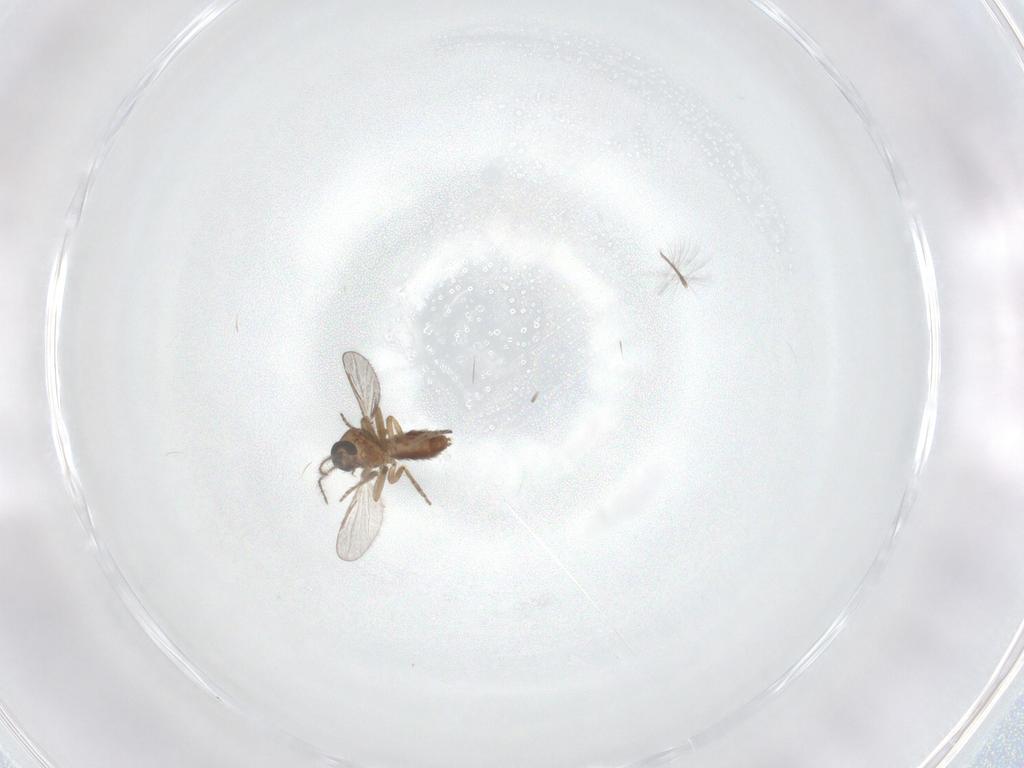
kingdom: Animalia
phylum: Arthropoda
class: Insecta
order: Diptera
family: Chironomidae
